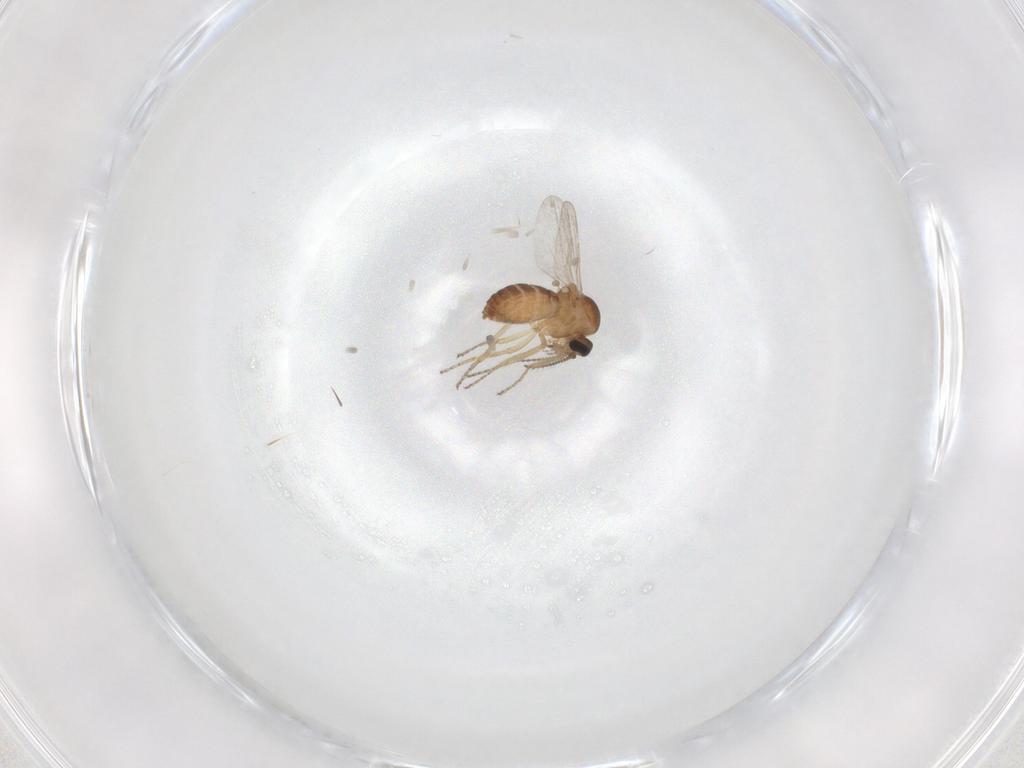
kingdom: Animalia
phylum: Arthropoda
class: Insecta
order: Diptera
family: Ceratopogonidae
